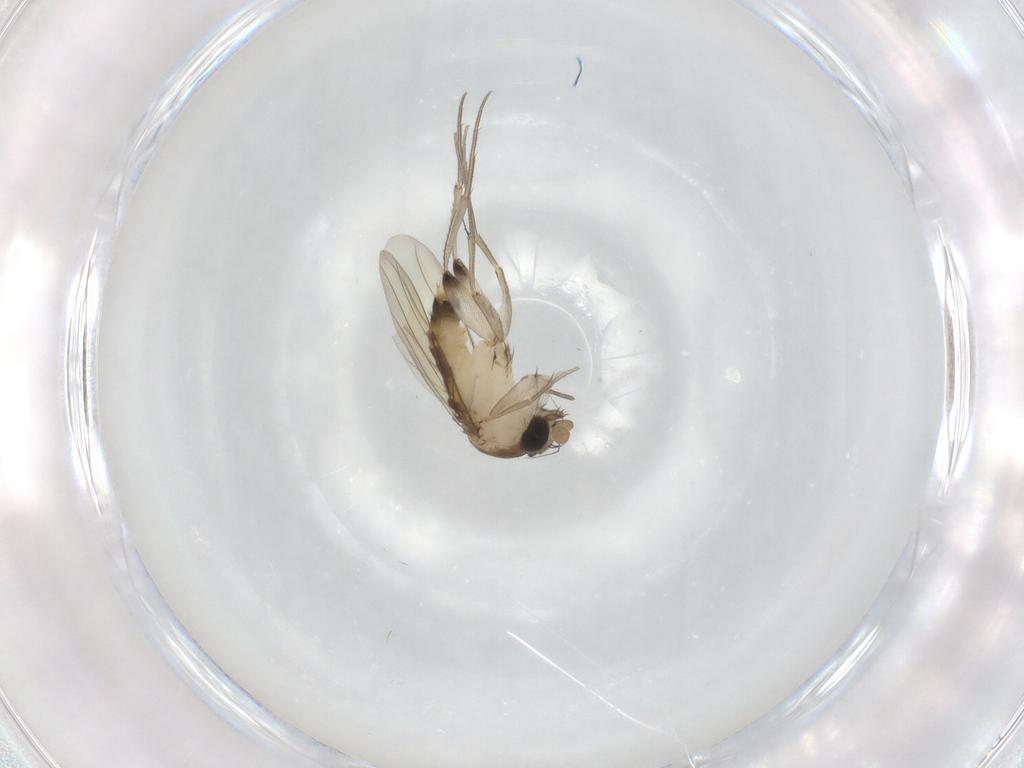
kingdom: Animalia
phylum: Arthropoda
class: Insecta
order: Diptera
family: Phoridae
